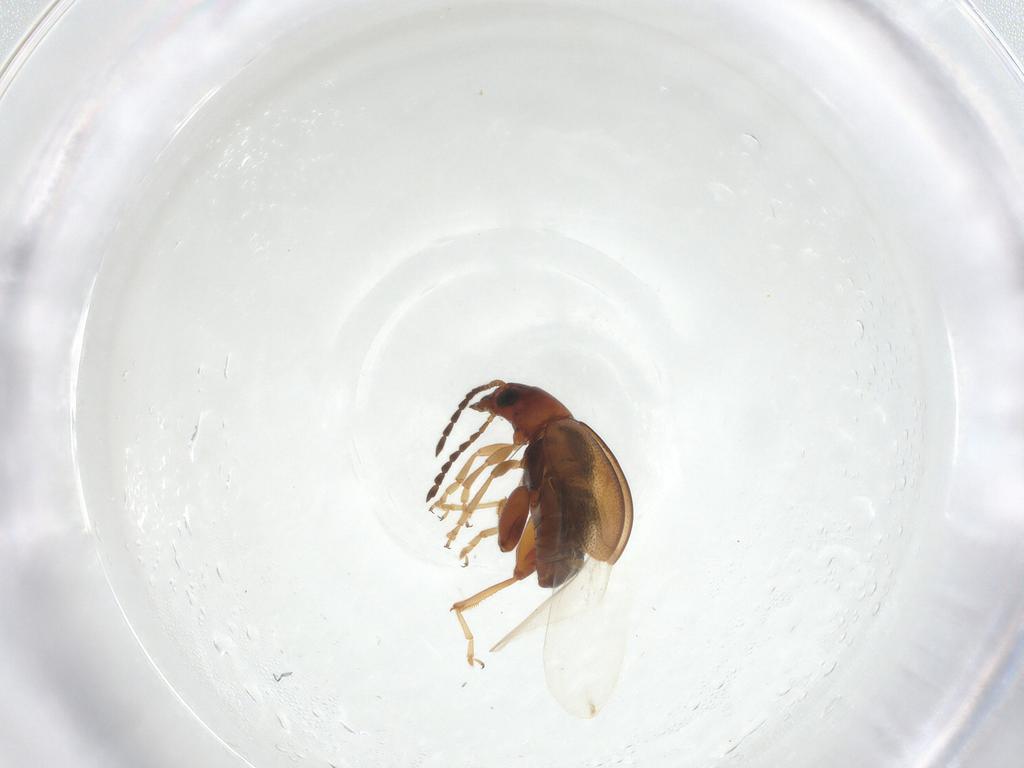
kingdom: Animalia
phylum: Arthropoda
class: Insecta
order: Coleoptera
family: Chrysomelidae
